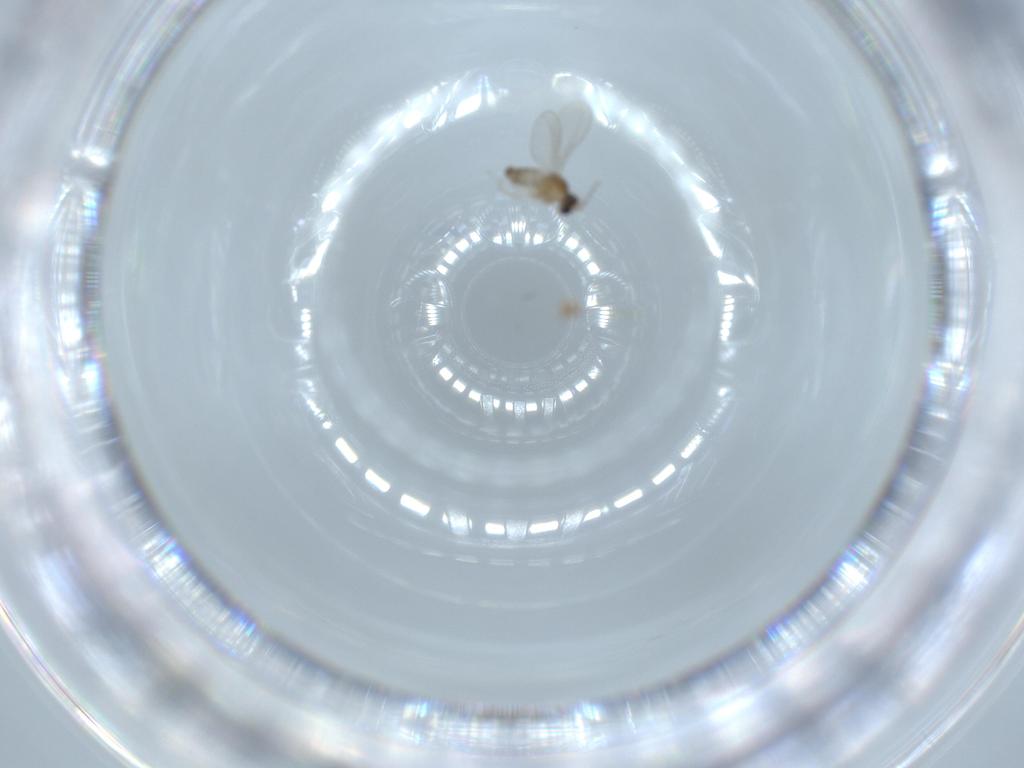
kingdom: Animalia
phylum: Arthropoda
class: Insecta
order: Diptera
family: Cecidomyiidae
